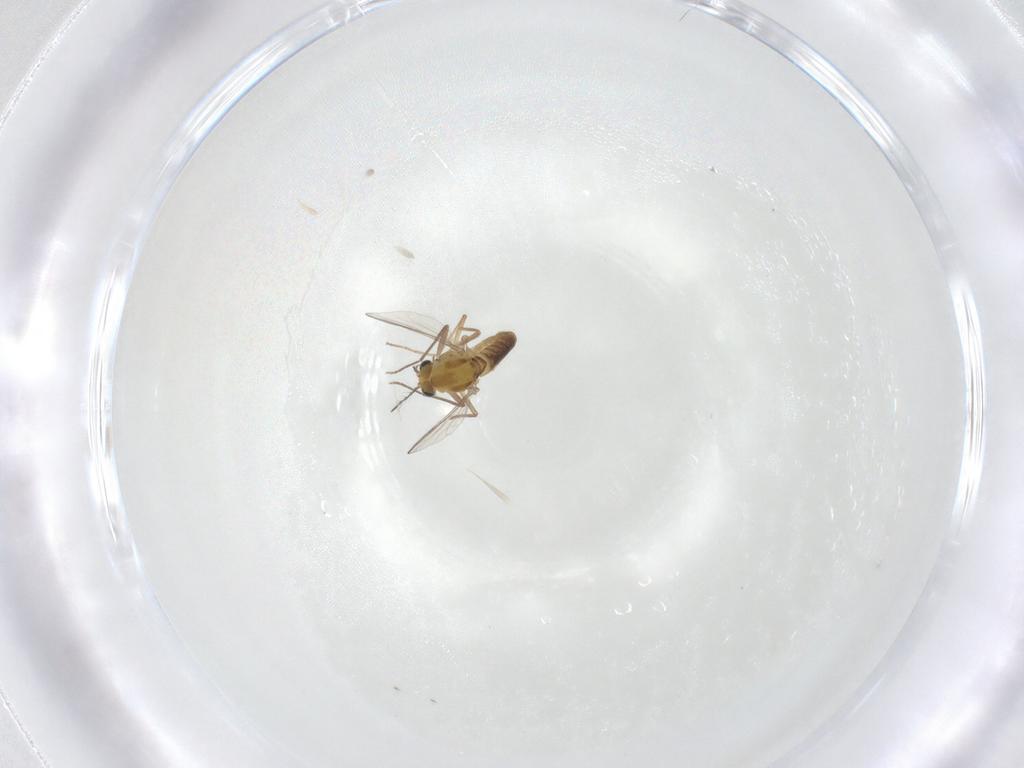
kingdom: Animalia
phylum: Arthropoda
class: Insecta
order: Diptera
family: Chironomidae
